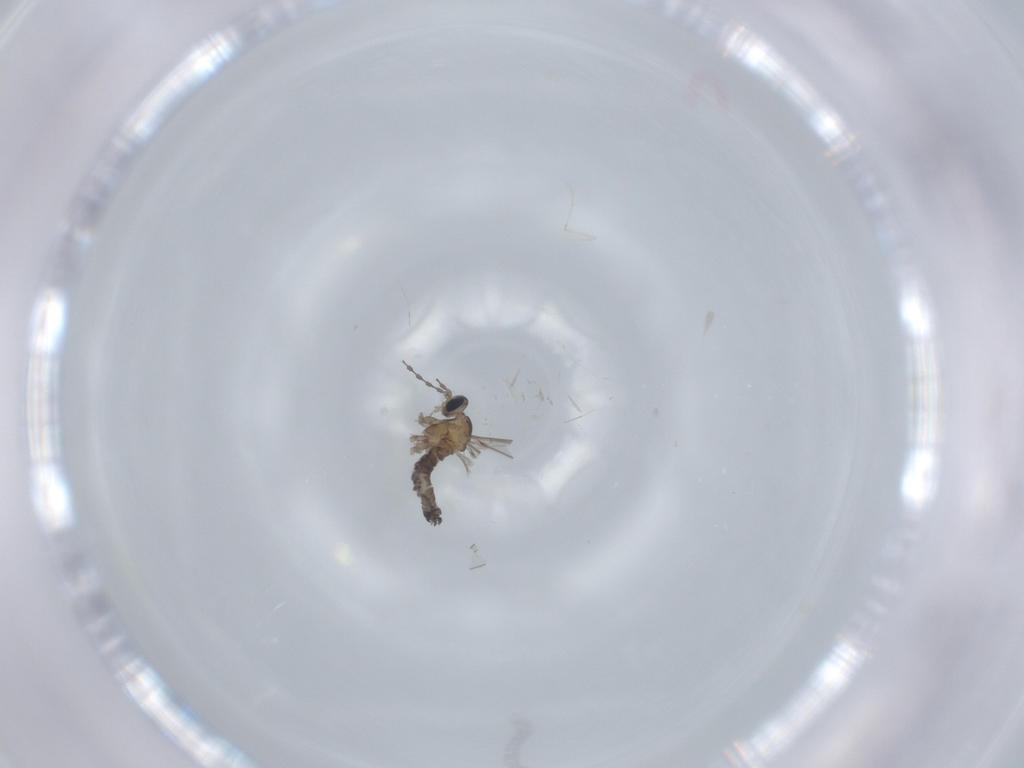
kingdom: Animalia
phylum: Arthropoda
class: Insecta
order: Diptera
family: Cecidomyiidae
